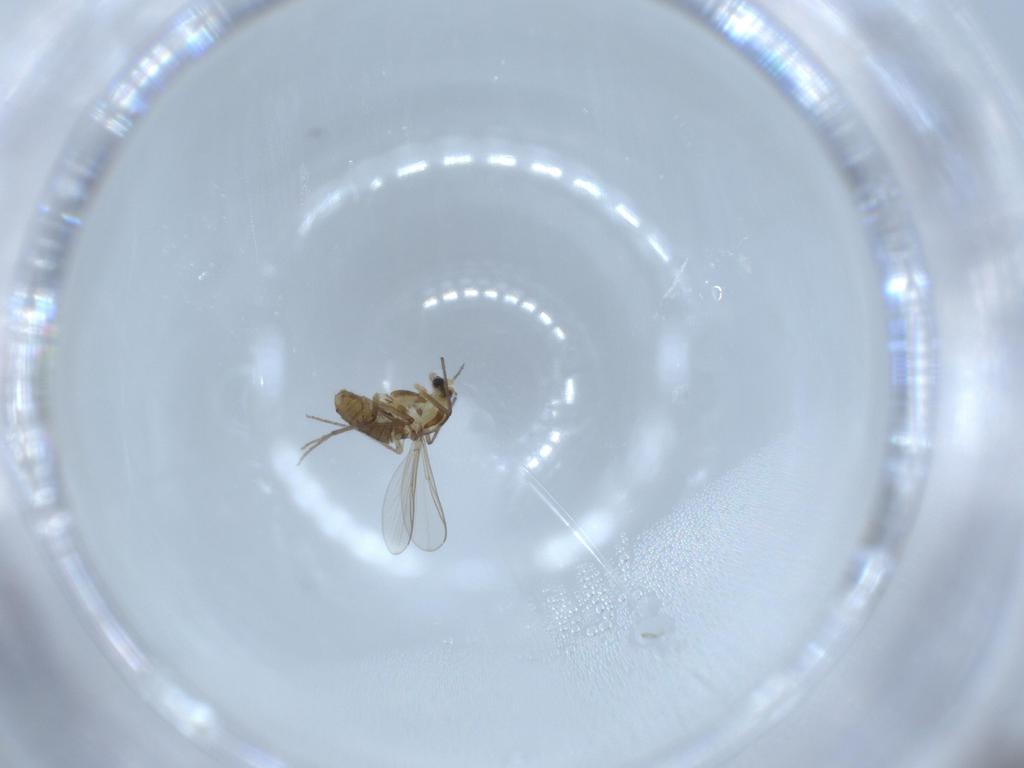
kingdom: Animalia
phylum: Arthropoda
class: Insecta
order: Diptera
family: Chironomidae
